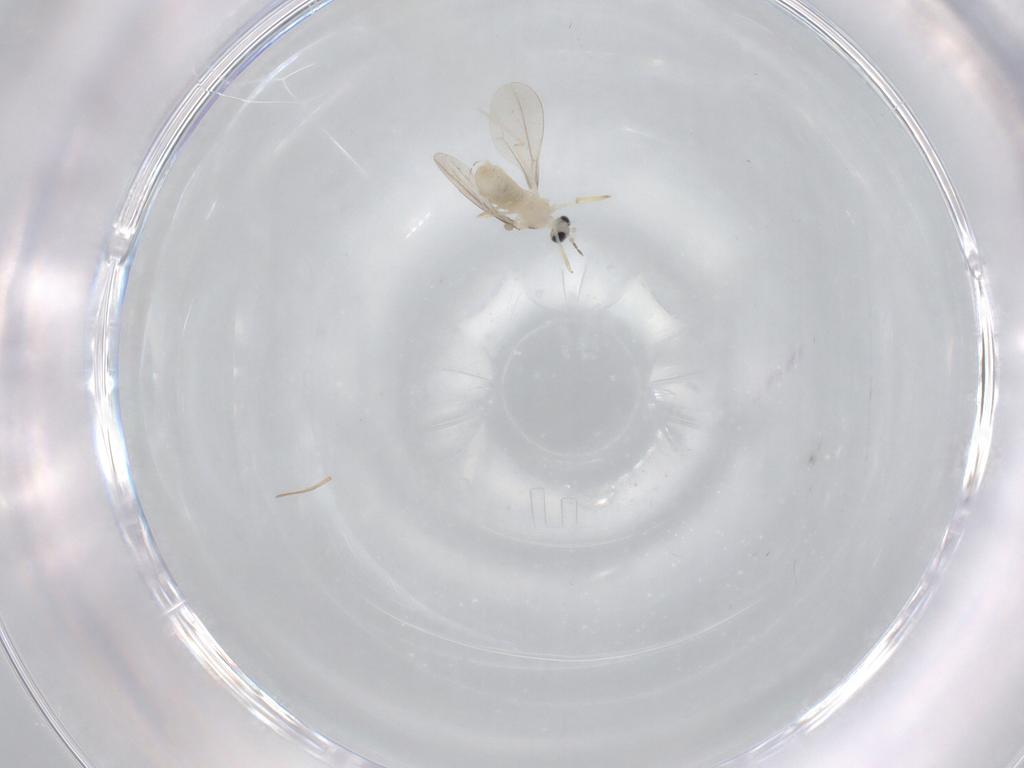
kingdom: Animalia
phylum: Arthropoda
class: Insecta
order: Diptera
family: Cecidomyiidae
